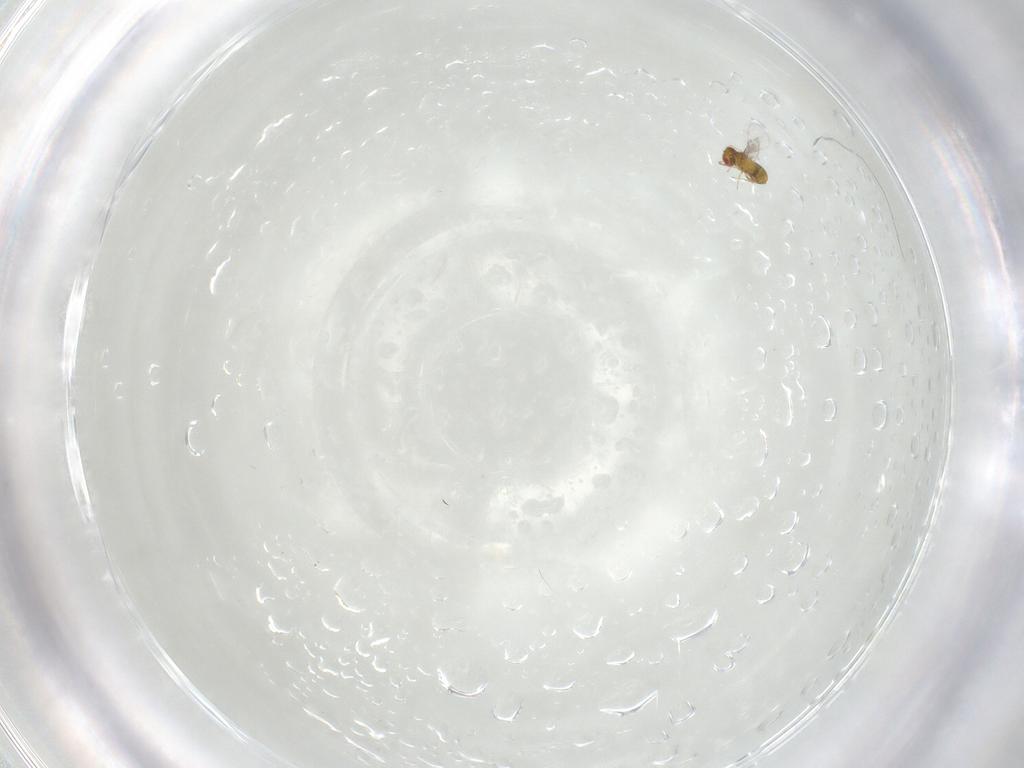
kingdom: Animalia
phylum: Arthropoda
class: Insecta
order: Hymenoptera
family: Trichogrammatidae
